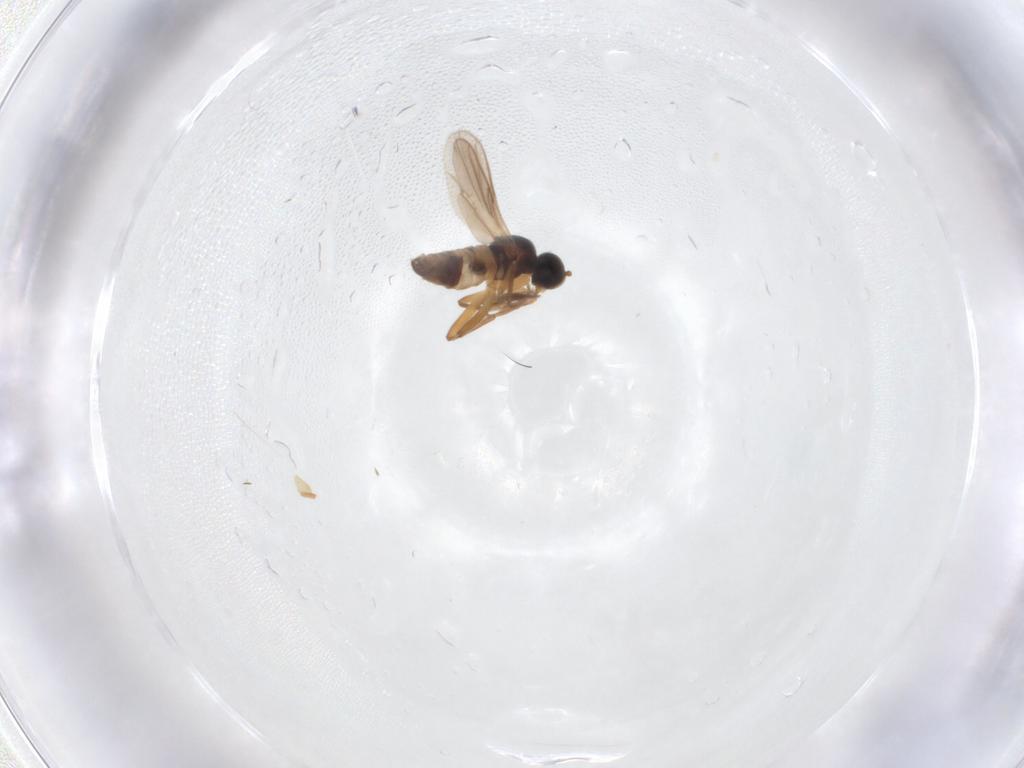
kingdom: Animalia
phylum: Arthropoda
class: Insecta
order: Diptera
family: Hybotidae
